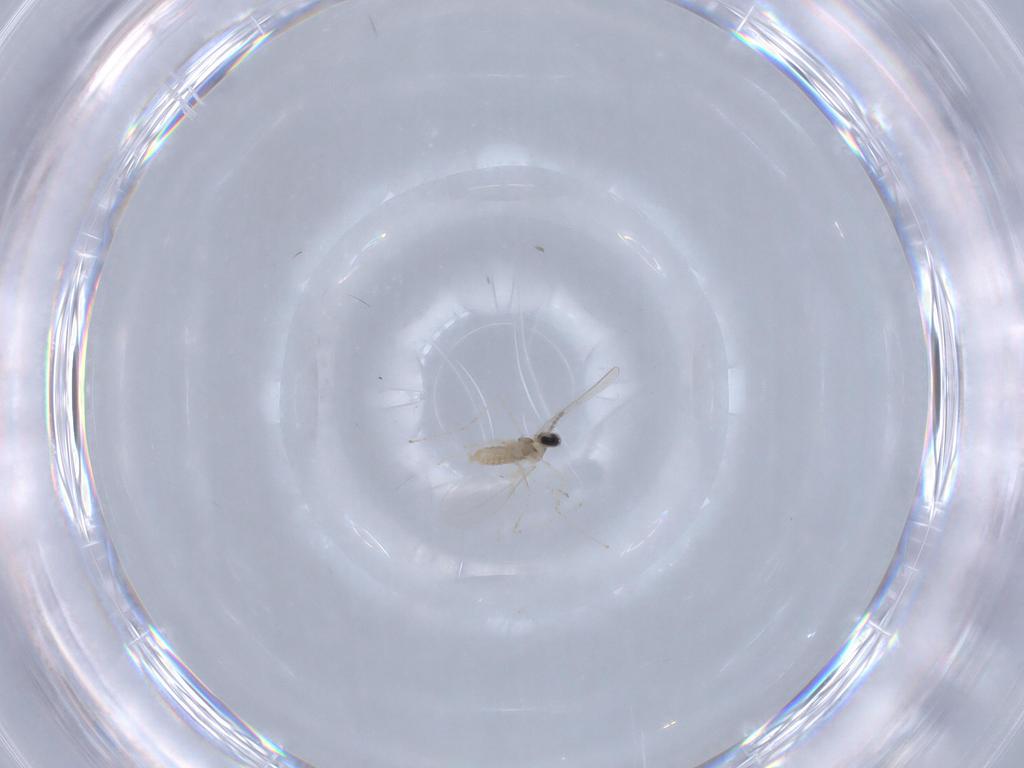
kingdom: Animalia
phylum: Arthropoda
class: Insecta
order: Diptera
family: Cecidomyiidae
